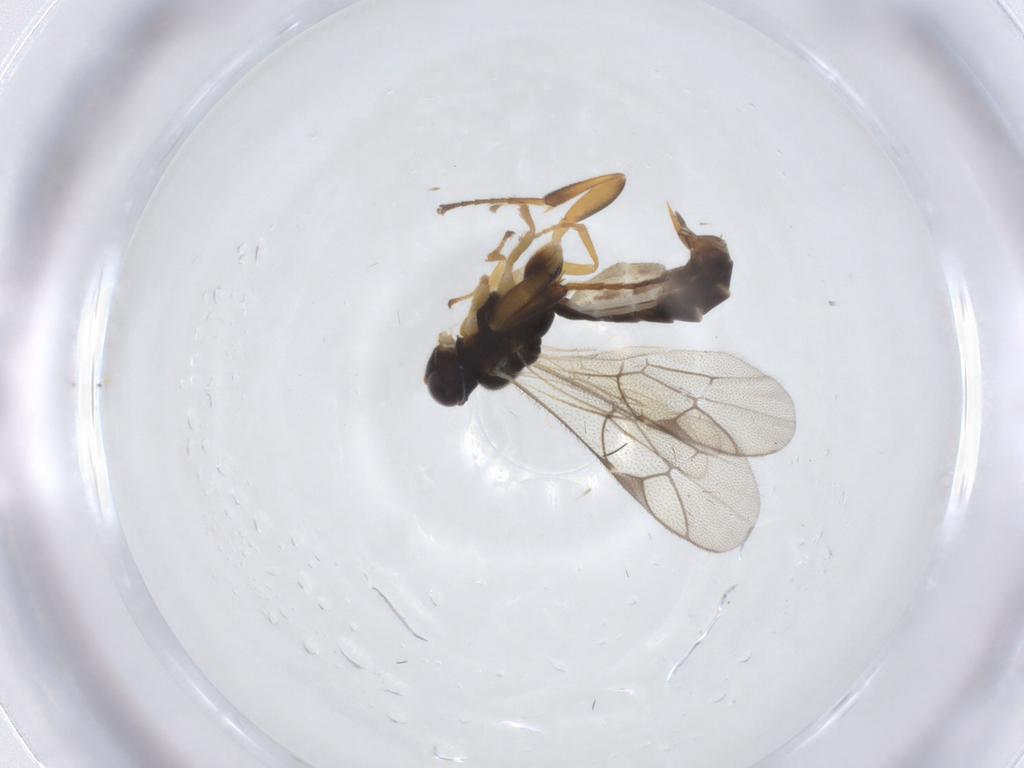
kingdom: Animalia
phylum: Arthropoda
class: Insecta
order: Hymenoptera
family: Ichneumonidae
